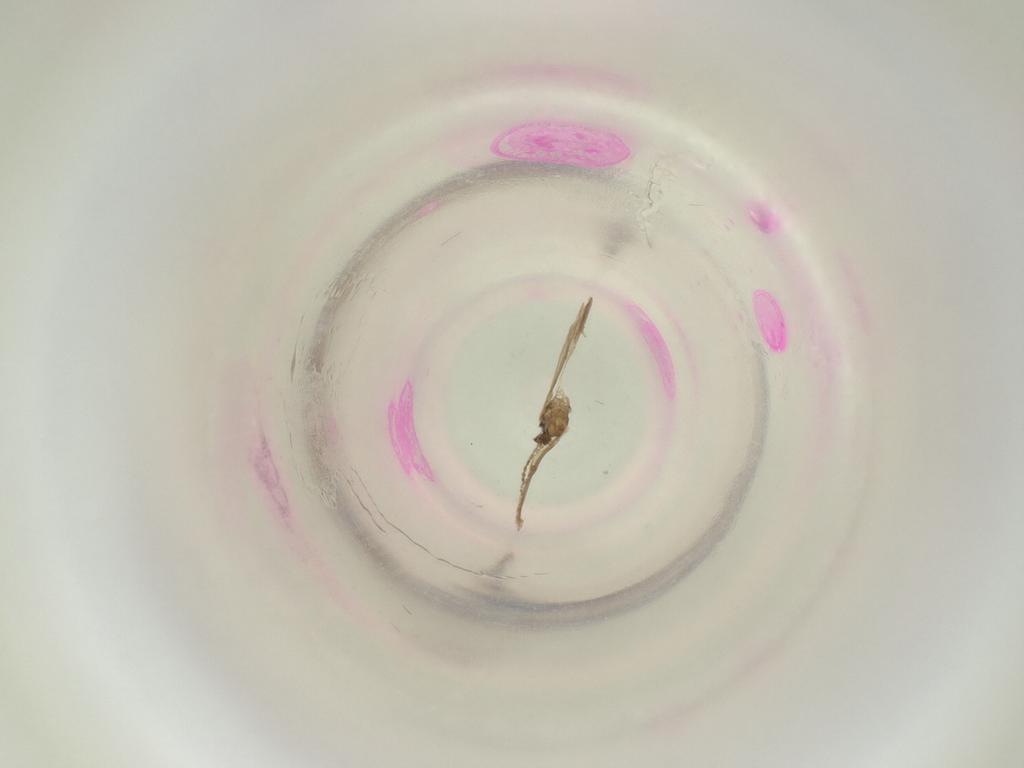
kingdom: Animalia
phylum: Arthropoda
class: Insecta
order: Diptera
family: Cecidomyiidae
